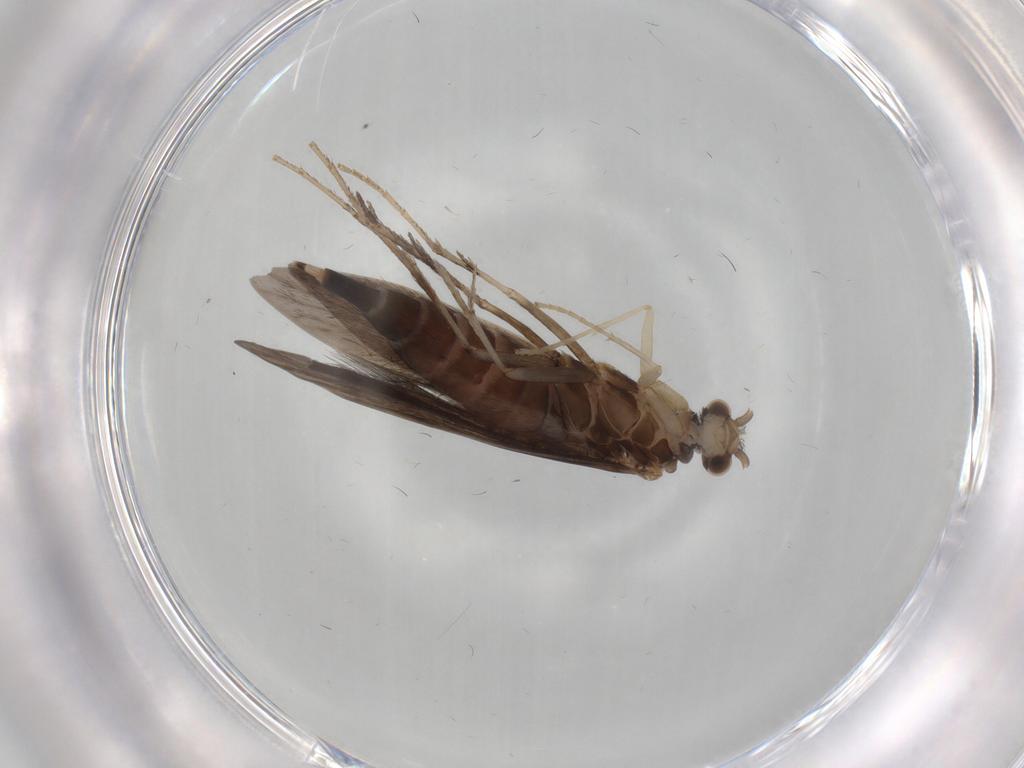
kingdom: Animalia
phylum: Arthropoda
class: Insecta
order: Trichoptera
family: Xiphocentronidae
